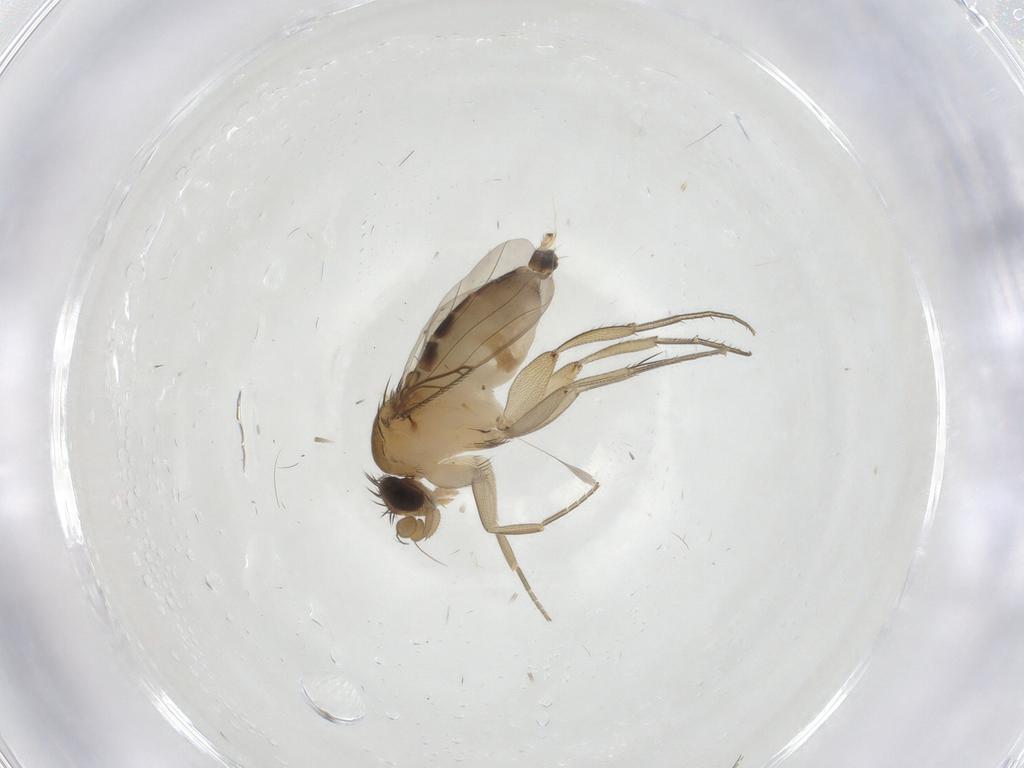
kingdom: Animalia
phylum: Arthropoda
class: Insecta
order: Diptera
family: Phoridae
